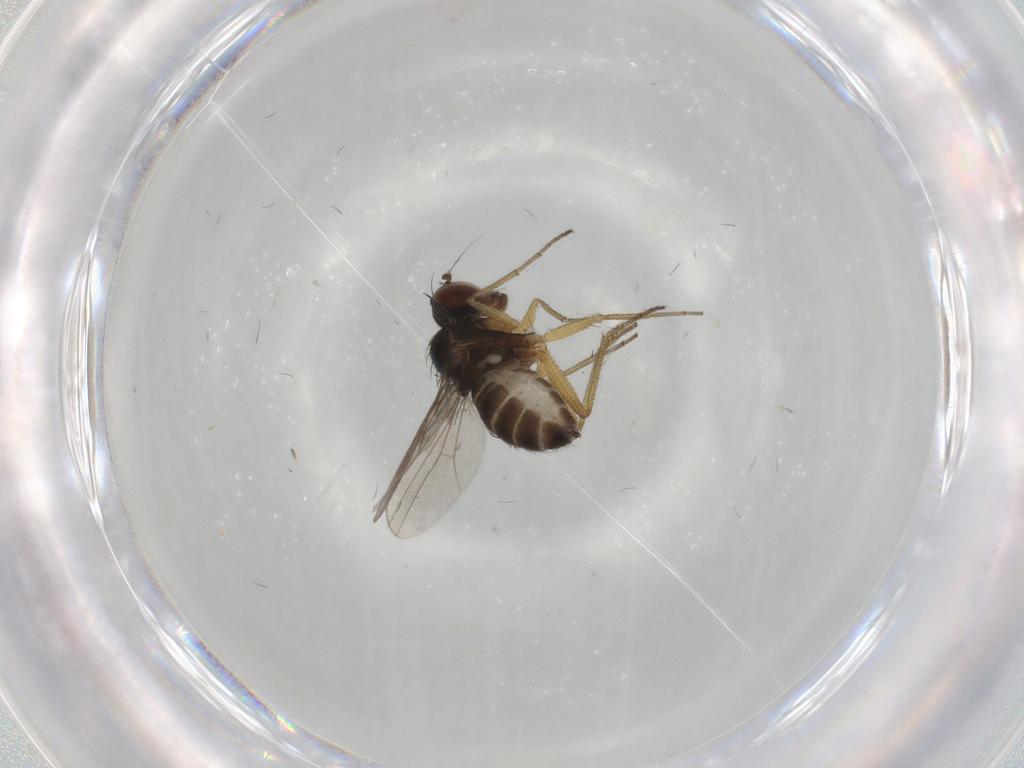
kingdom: Animalia
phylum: Arthropoda
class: Insecta
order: Diptera
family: Dolichopodidae
